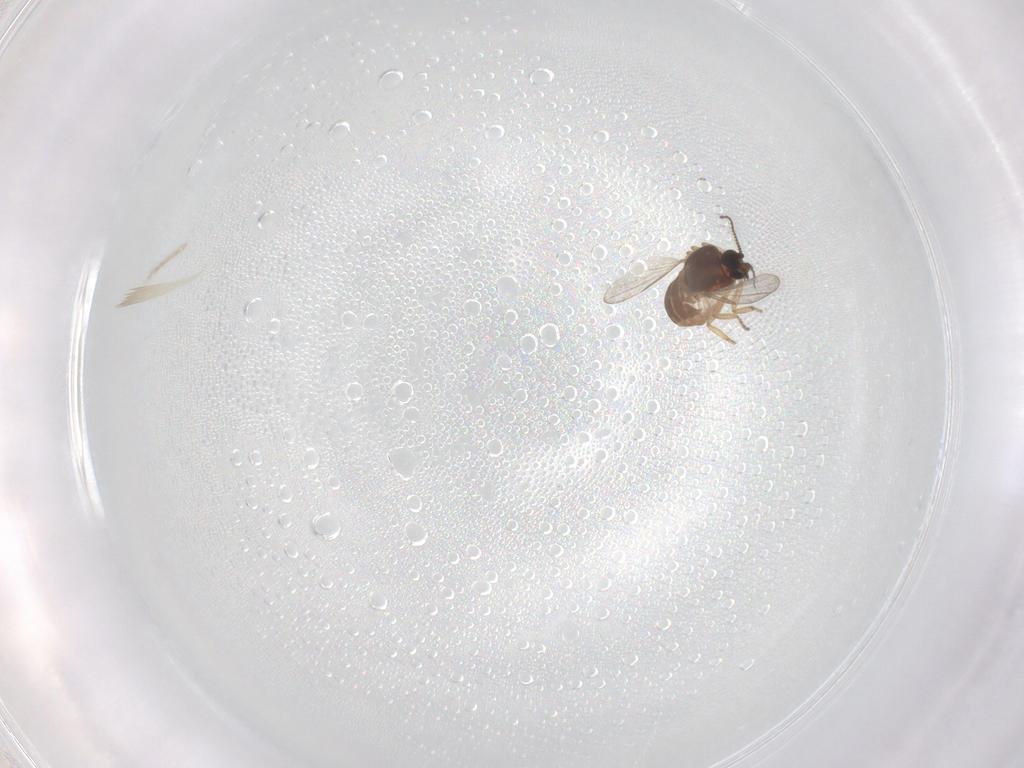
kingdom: Animalia
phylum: Arthropoda
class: Insecta
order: Diptera
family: Ceratopogonidae
